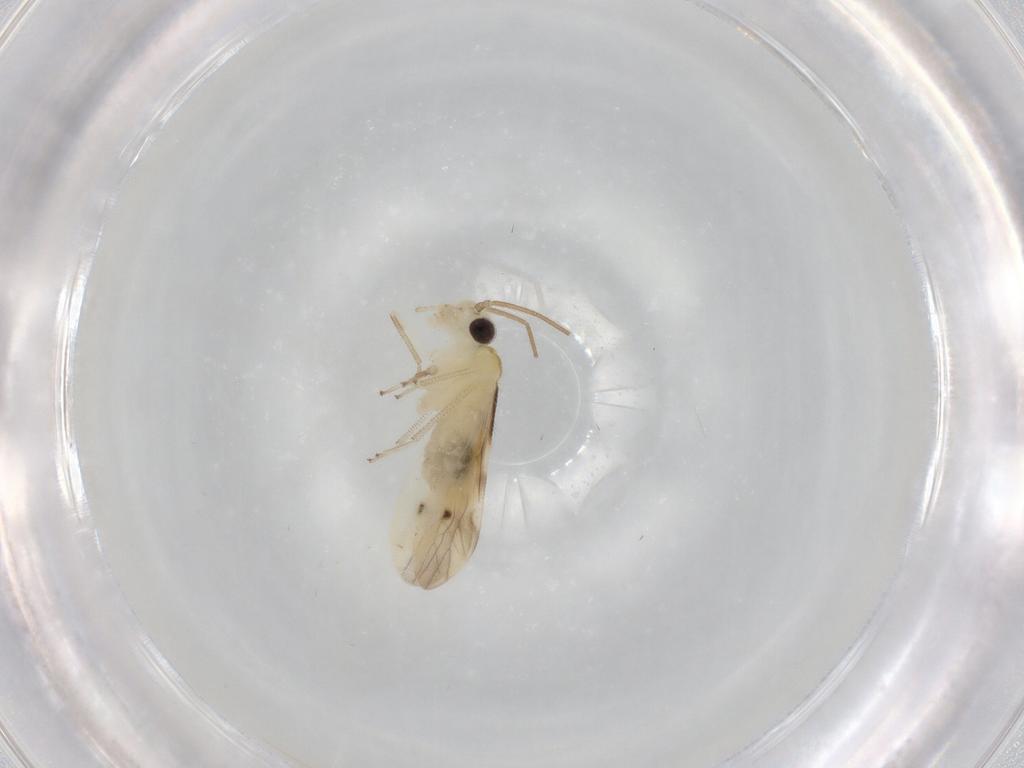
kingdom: Animalia
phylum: Arthropoda
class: Insecta
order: Psocodea
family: Caeciliusidae
